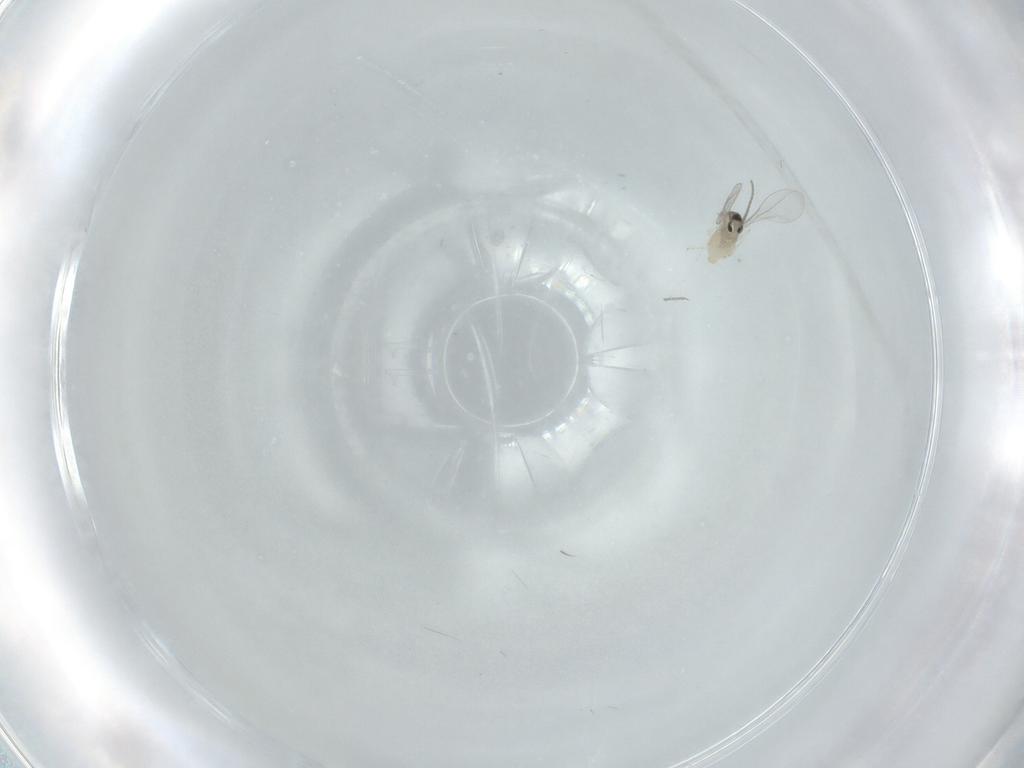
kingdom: Animalia
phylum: Arthropoda
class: Insecta
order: Diptera
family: Cecidomyiidae
